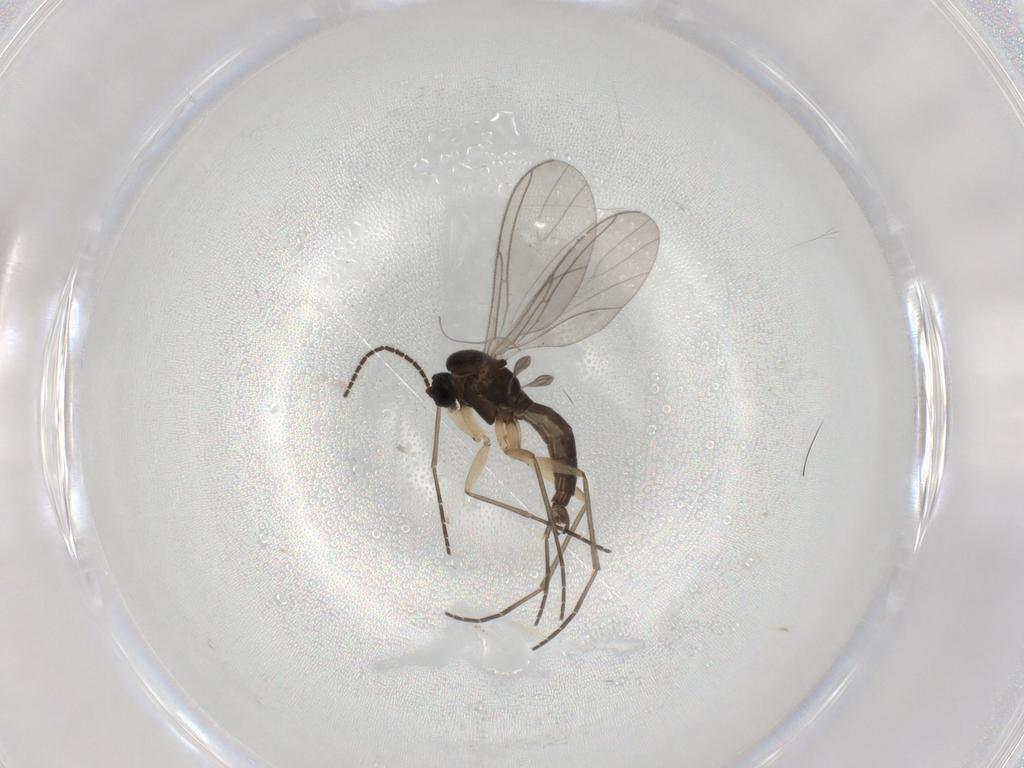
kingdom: Animalia
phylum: Arthropoda
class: Insecta
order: Diptera
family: Sciaridae
